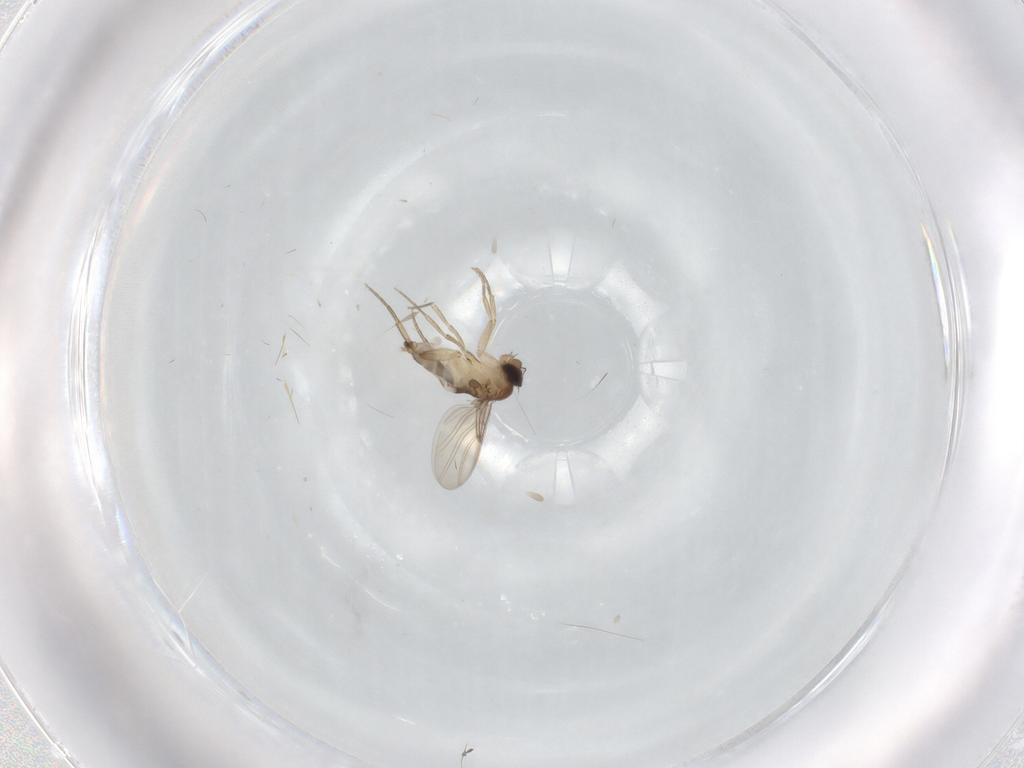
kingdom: Animalia
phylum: Arthropoda
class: Insecta
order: Diptera
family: Phoridae
